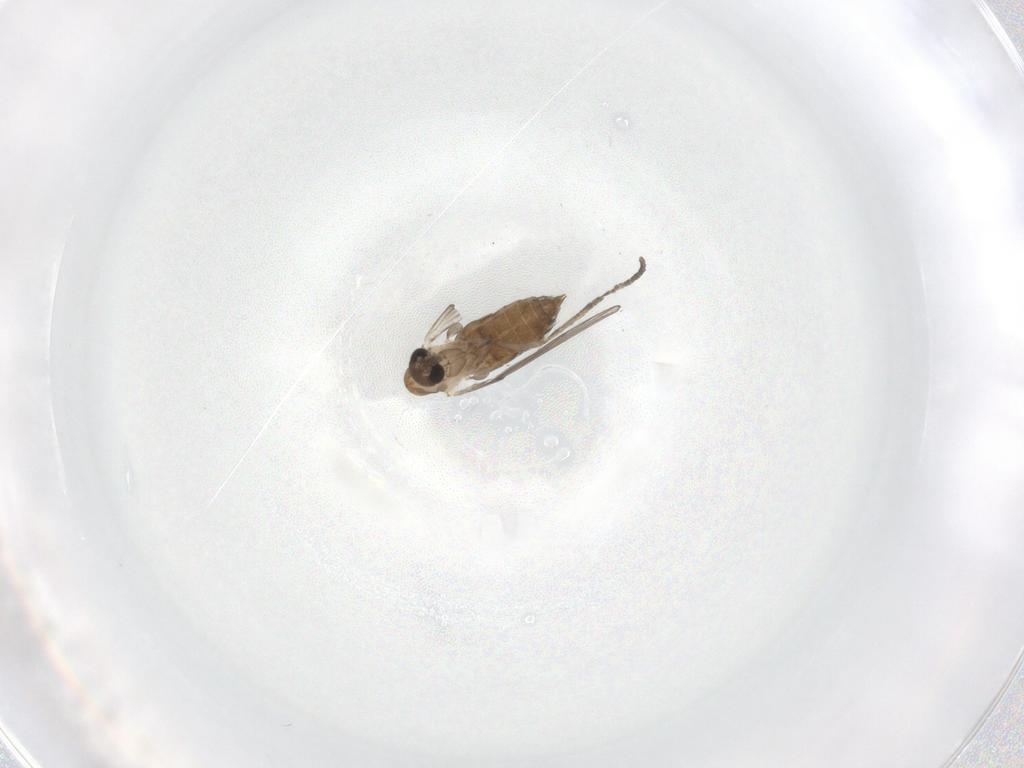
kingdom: Animalia
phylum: Arthropoda
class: Insecta
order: Diptera
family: Psychodidae
